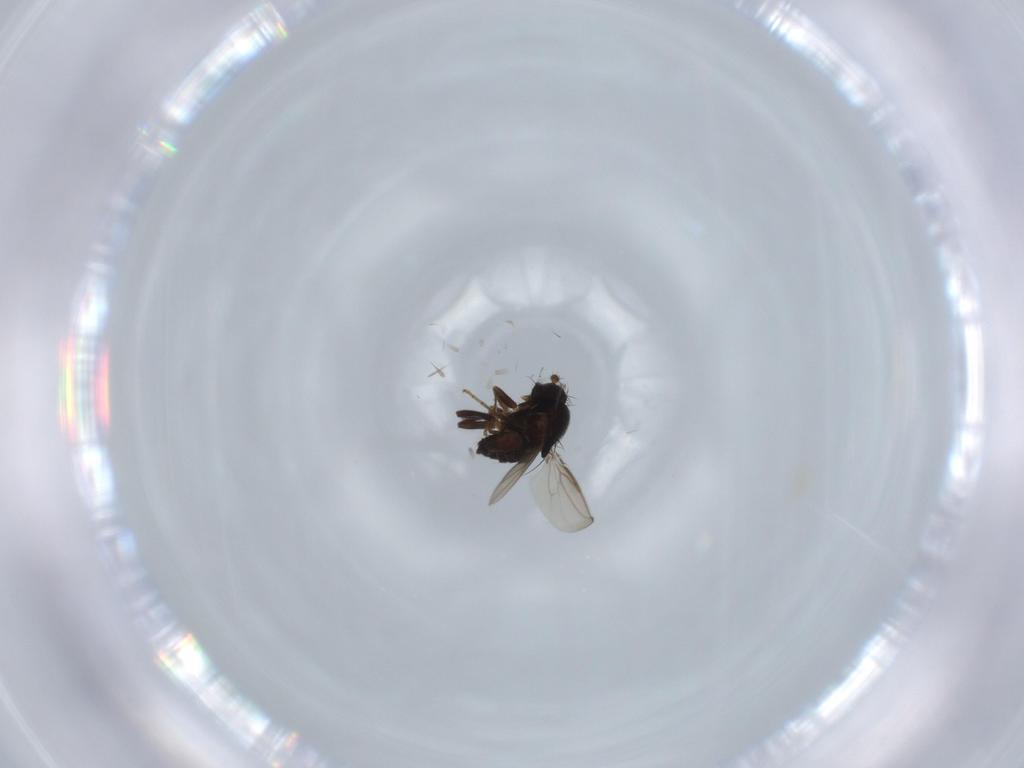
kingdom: Animalia
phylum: Arthropoda
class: Insecta
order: Diptera
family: Sphaeroceridae
